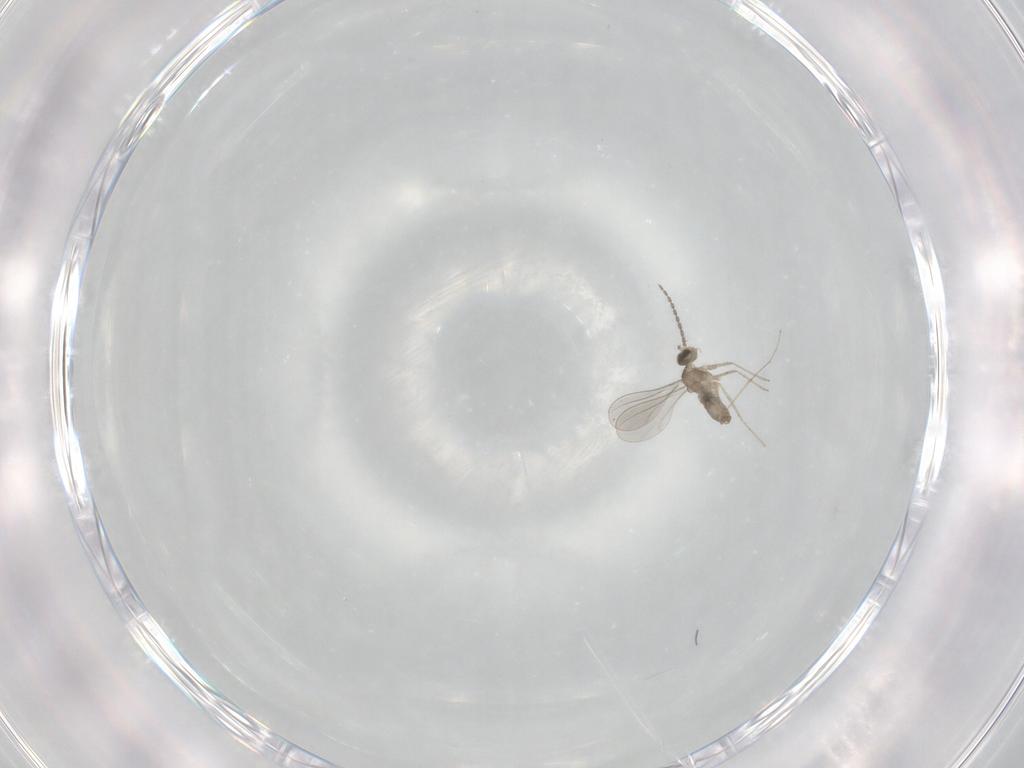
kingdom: Animalia
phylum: Arthropoda
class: Insecta
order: Diptera
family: Sciaridae
